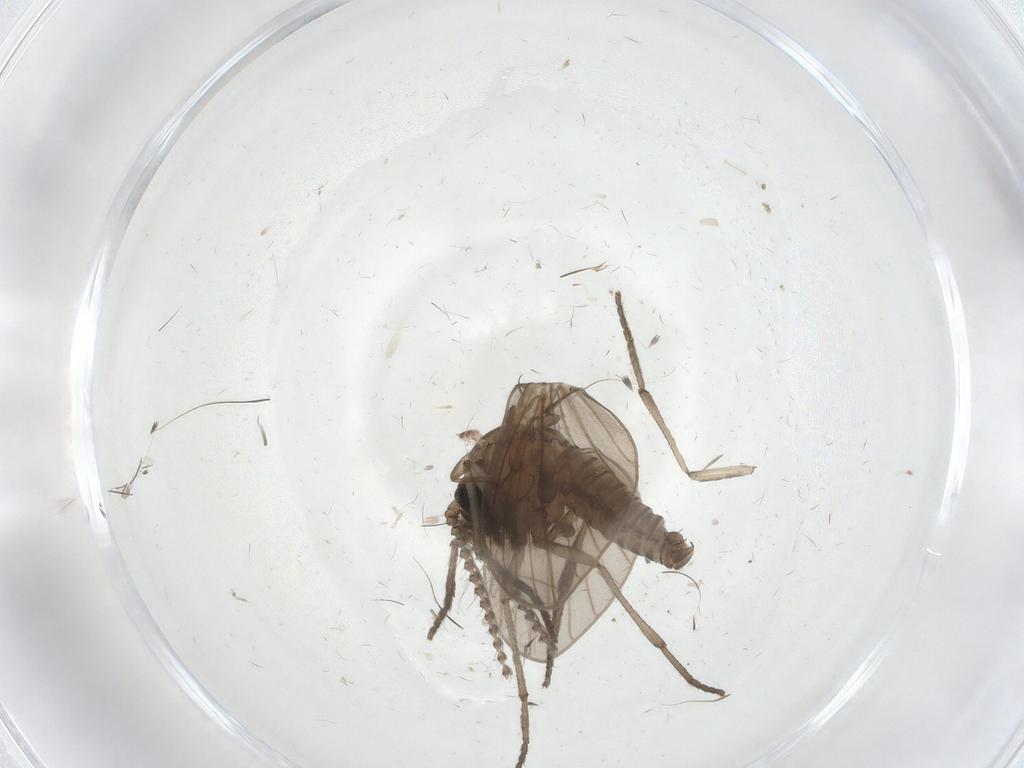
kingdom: Animalia
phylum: Arthropoda
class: Insecta
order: Diptera
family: Psychodidae
